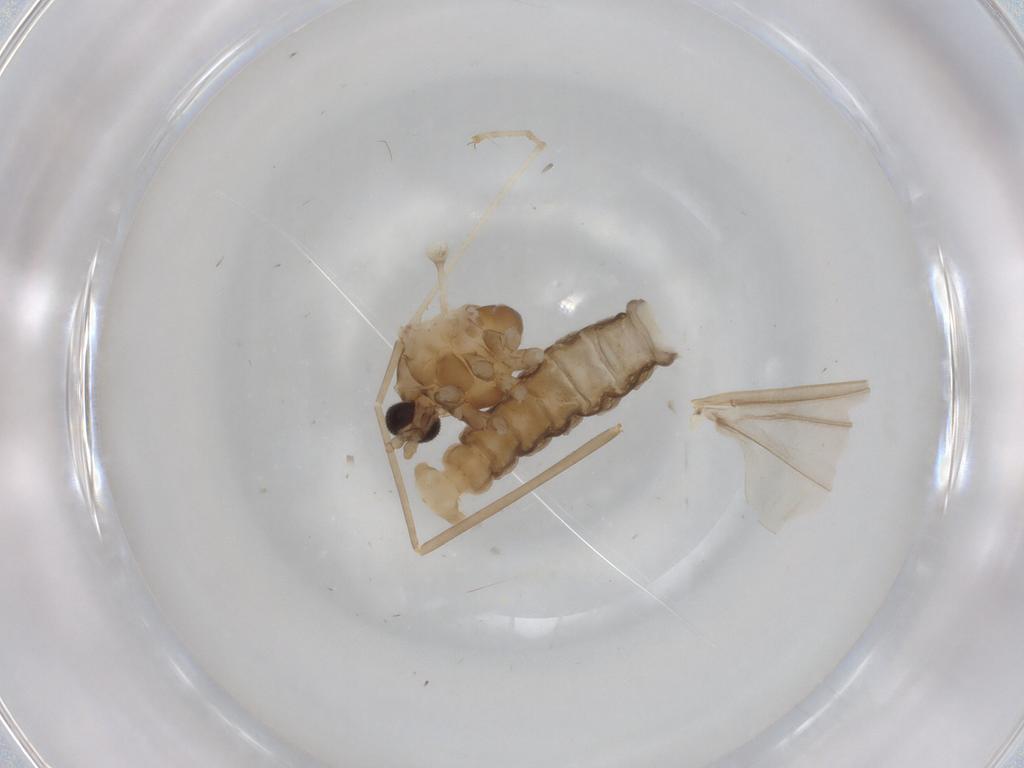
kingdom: Animalia
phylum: Arthropoda
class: Insecta
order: Diptera
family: Cecidomyiidae
